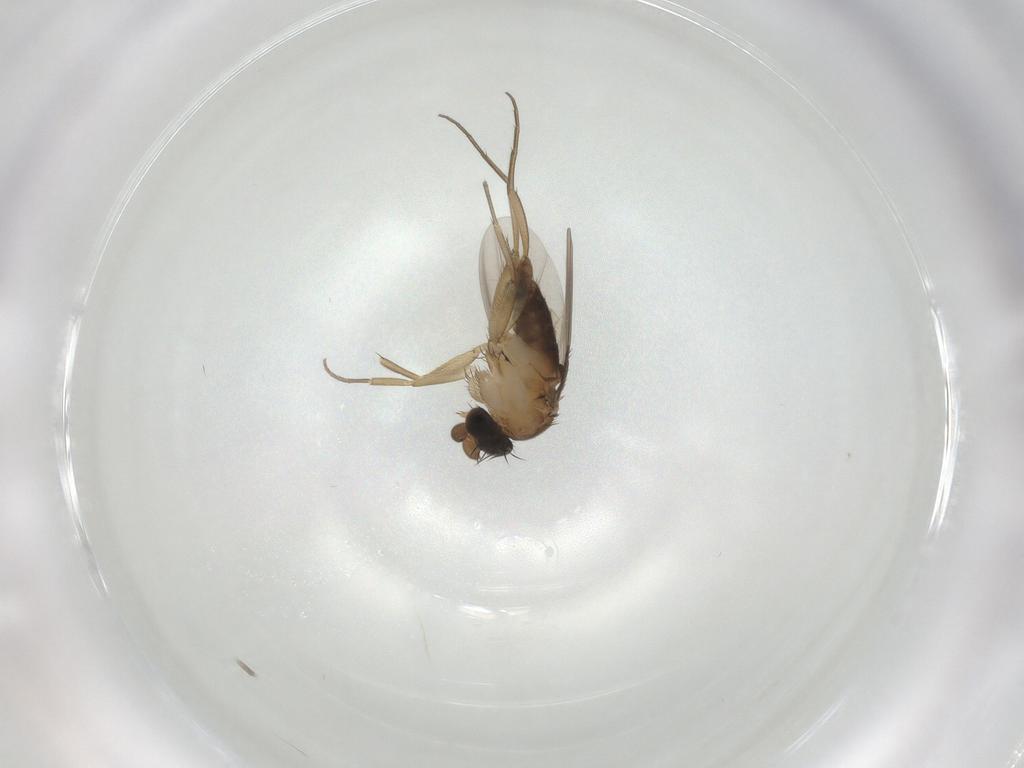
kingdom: Animalia
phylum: Arthropoda
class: Insecta
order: Diptera
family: Phoridae
